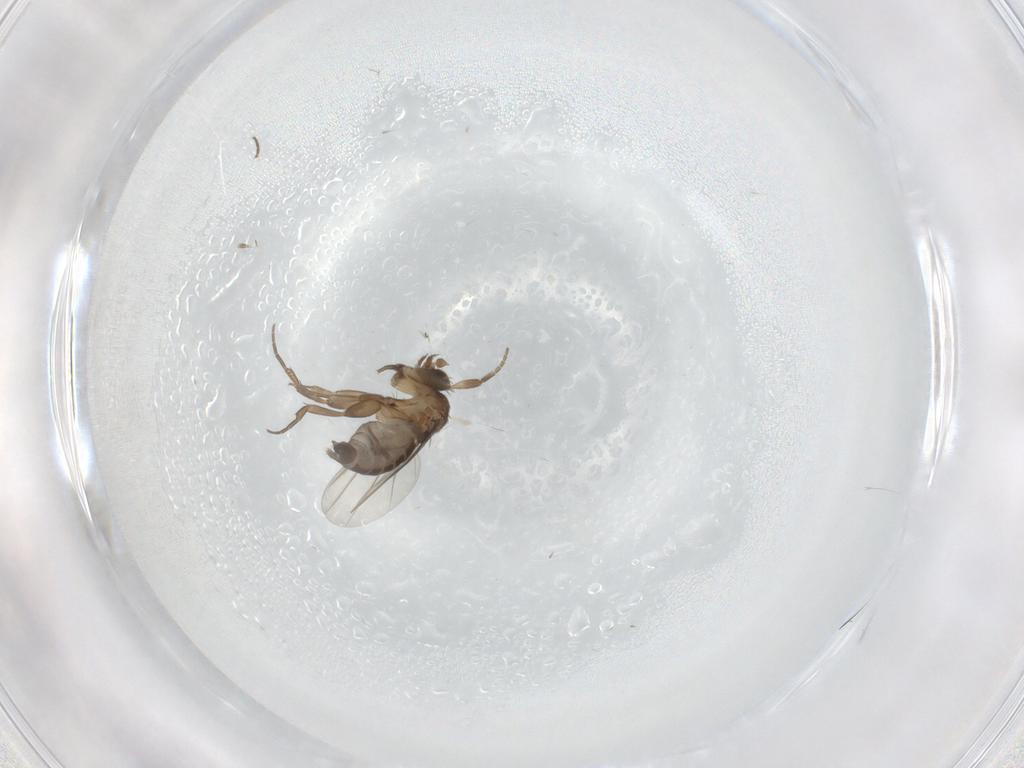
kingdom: Animalia
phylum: Arthropoda
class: Insecta
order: Diptera
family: Phoridae
